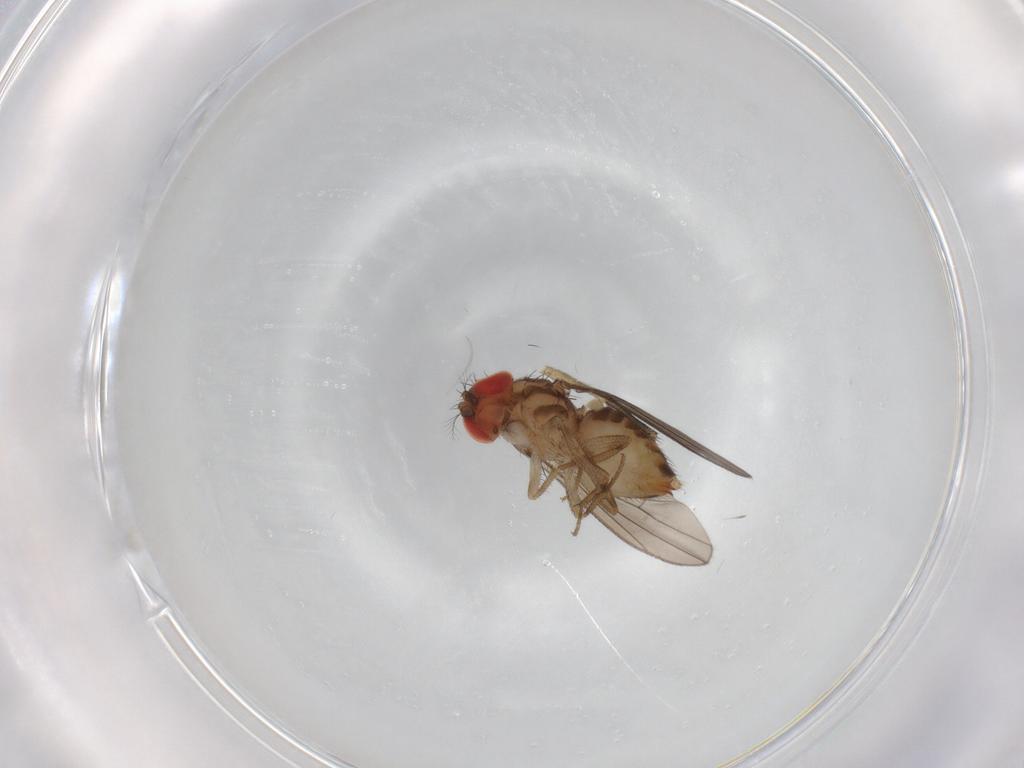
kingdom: Animalia
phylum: Arthropoda
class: Insecta
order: Diptera
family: Drosophilidae
